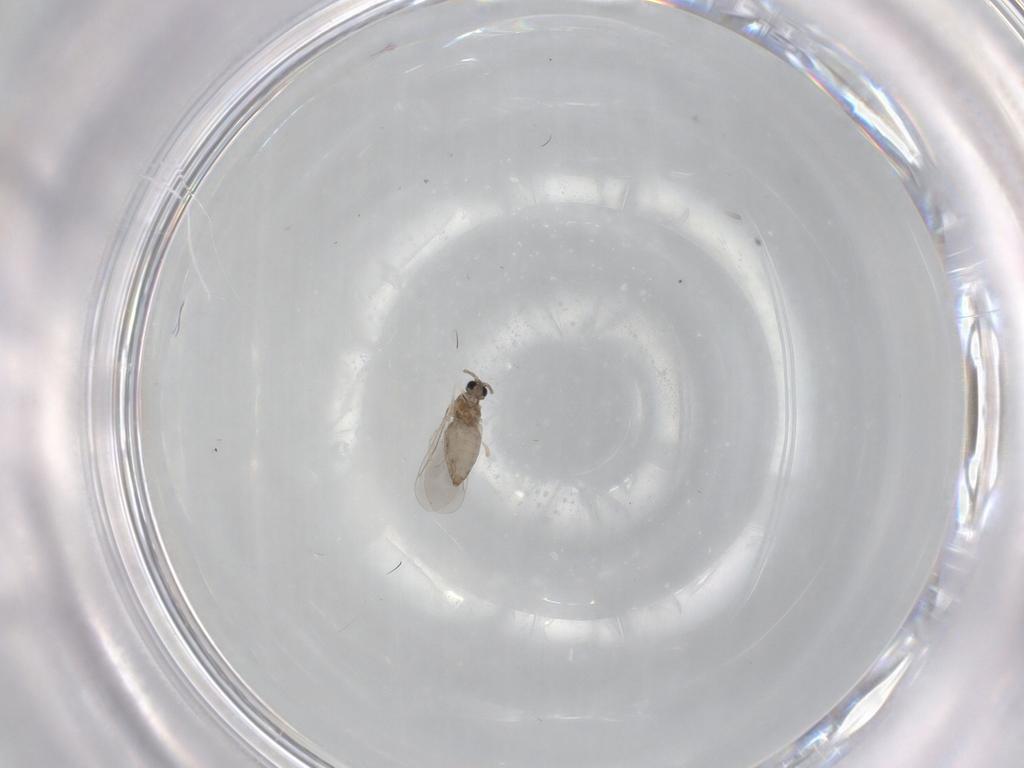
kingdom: Animalia
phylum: Arthropoda
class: Insecta
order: Diptera
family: Cecidomyiidae
